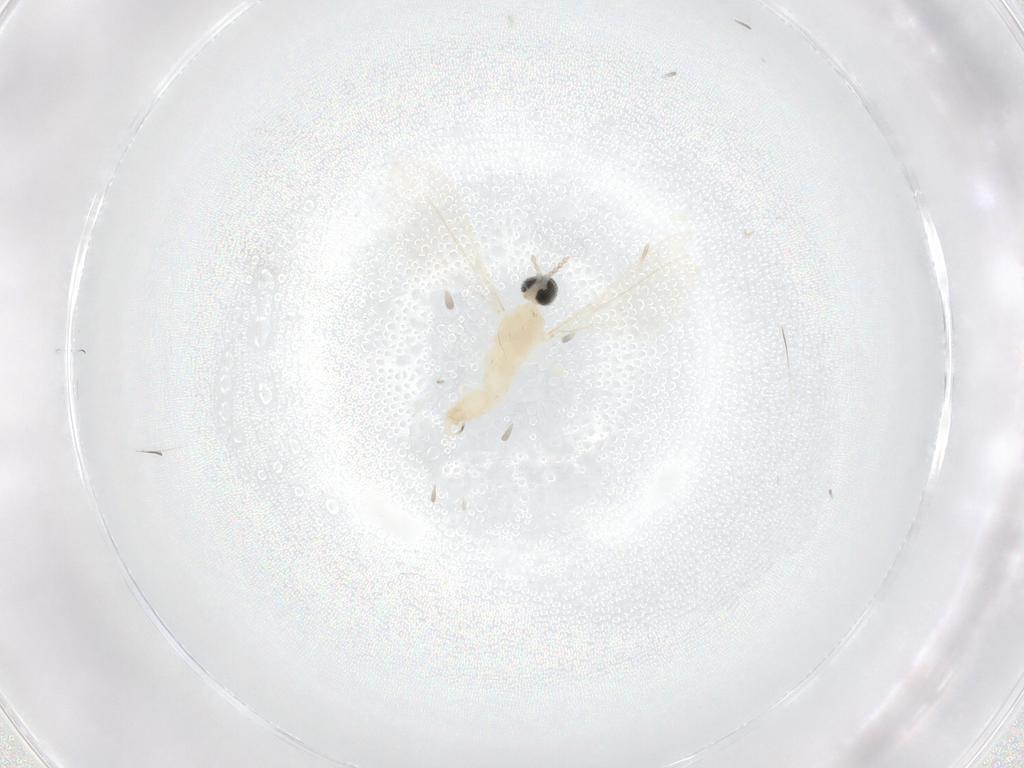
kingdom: Animalia
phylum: Arthropoda
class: Insecta
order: Diptera
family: Cecidomyiidae
